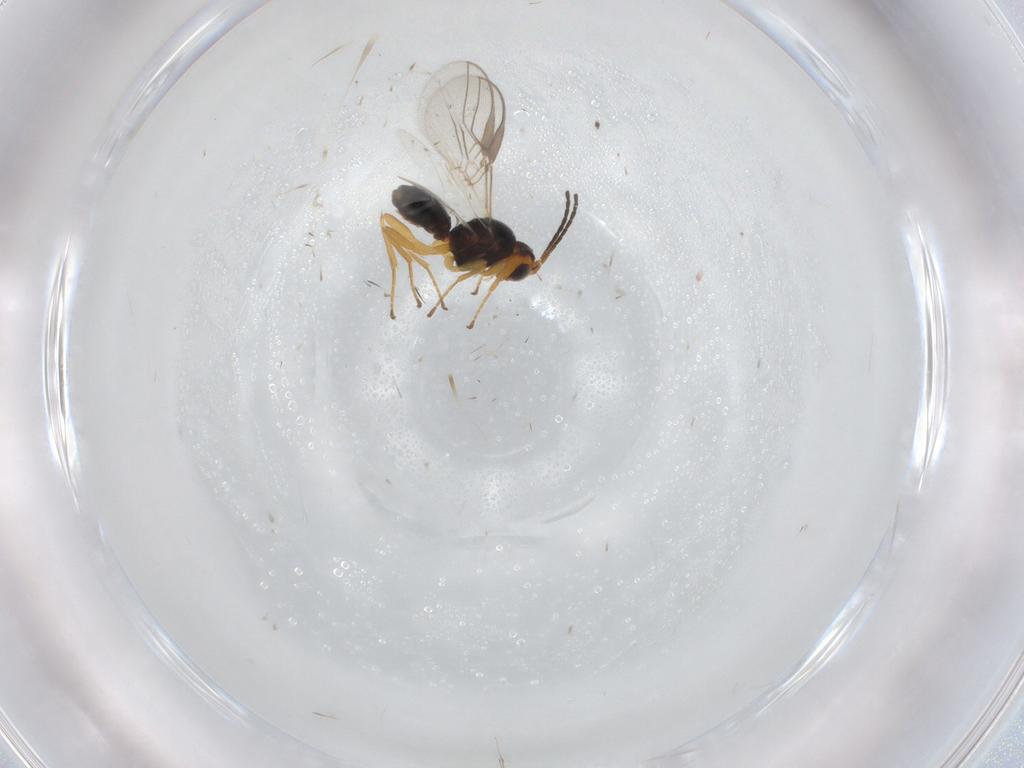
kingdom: Animalia
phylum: Arthropoda
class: Insecta
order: Hymenoptera
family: Braconidae
